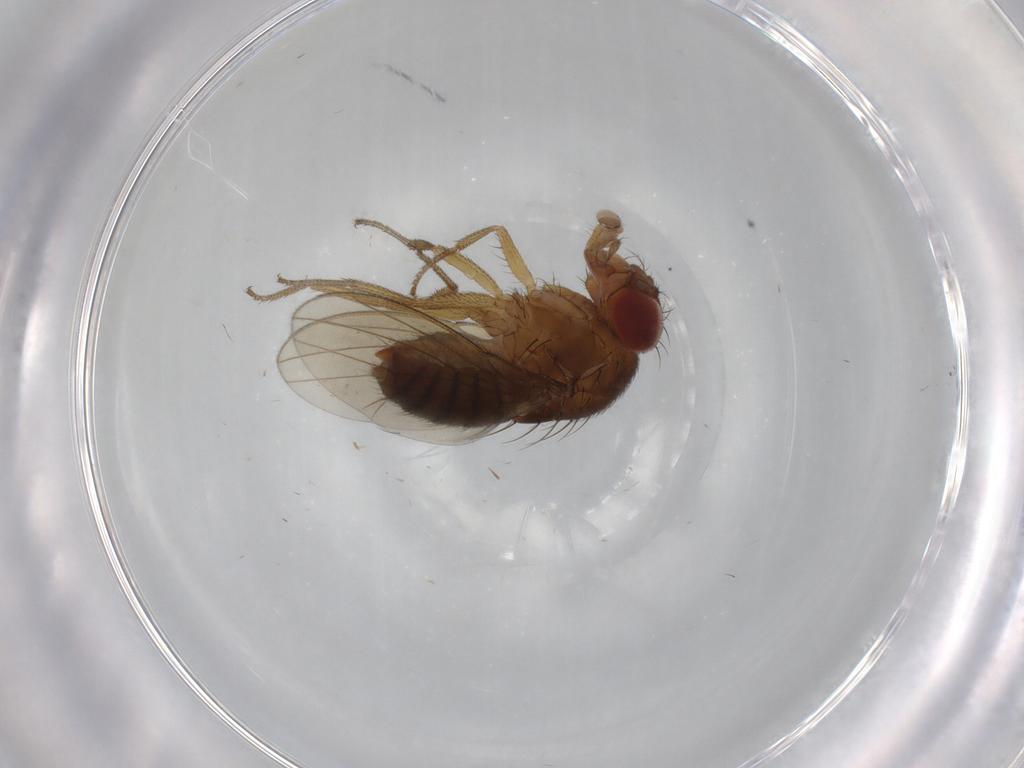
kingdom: Animalia
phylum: Arthropoda
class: Insecta
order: Diptera
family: Drosophilidae
